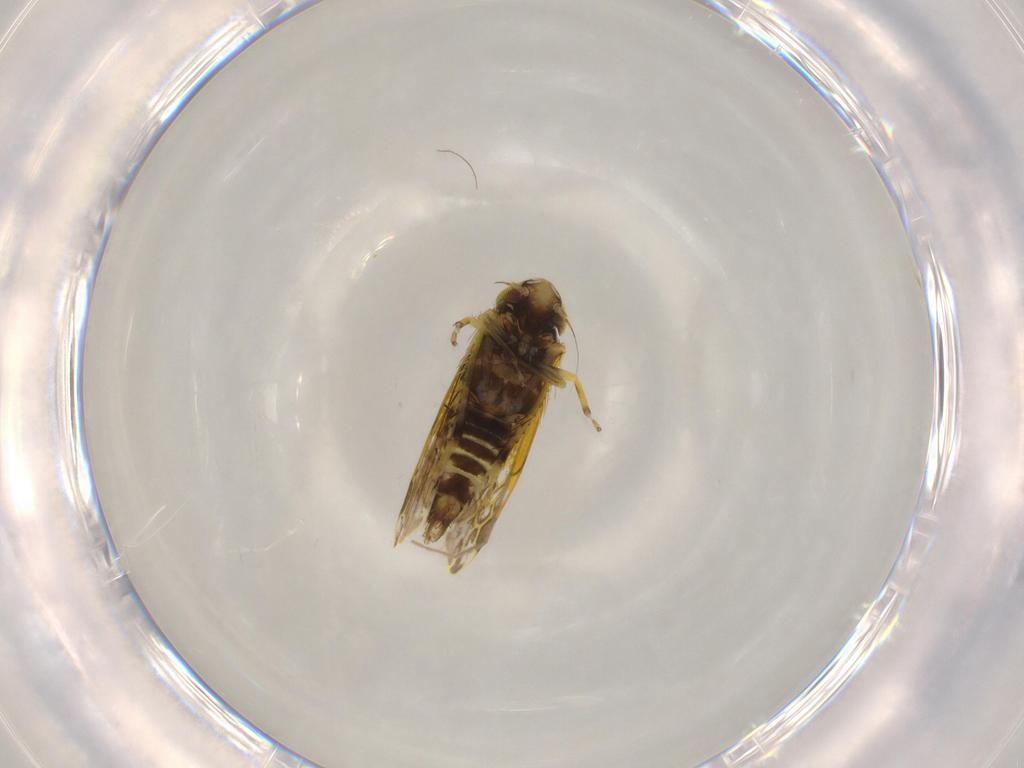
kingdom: Animalia
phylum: Arthropoda
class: Insecta
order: Hemiptera
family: Cicadellidae
